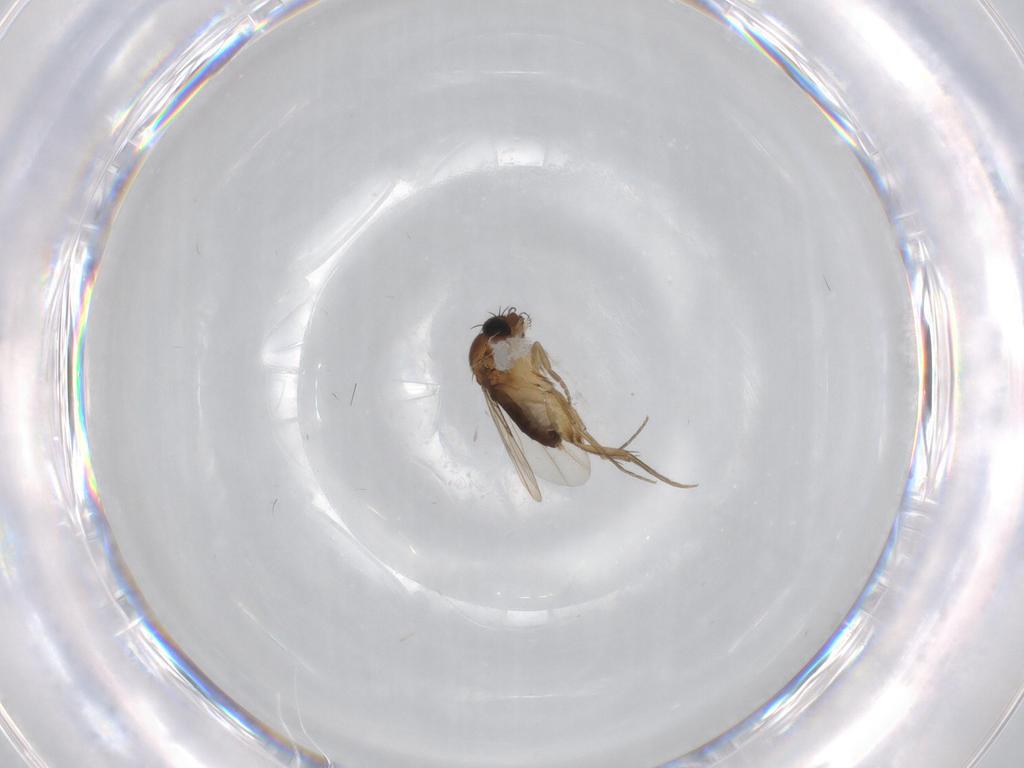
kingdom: Animalia
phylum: Arthropoda
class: Insecta
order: Diptera
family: Phoridae
